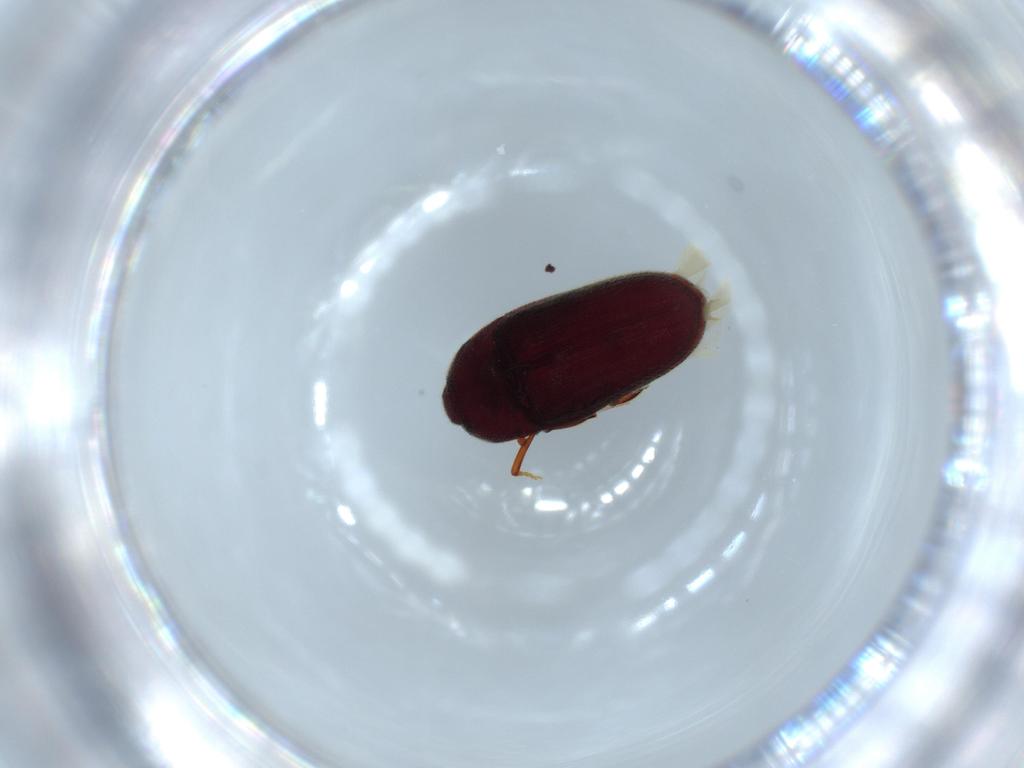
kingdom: Animalia
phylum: Arthropoda
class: Insecta
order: Coleoptera
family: Throscidae
